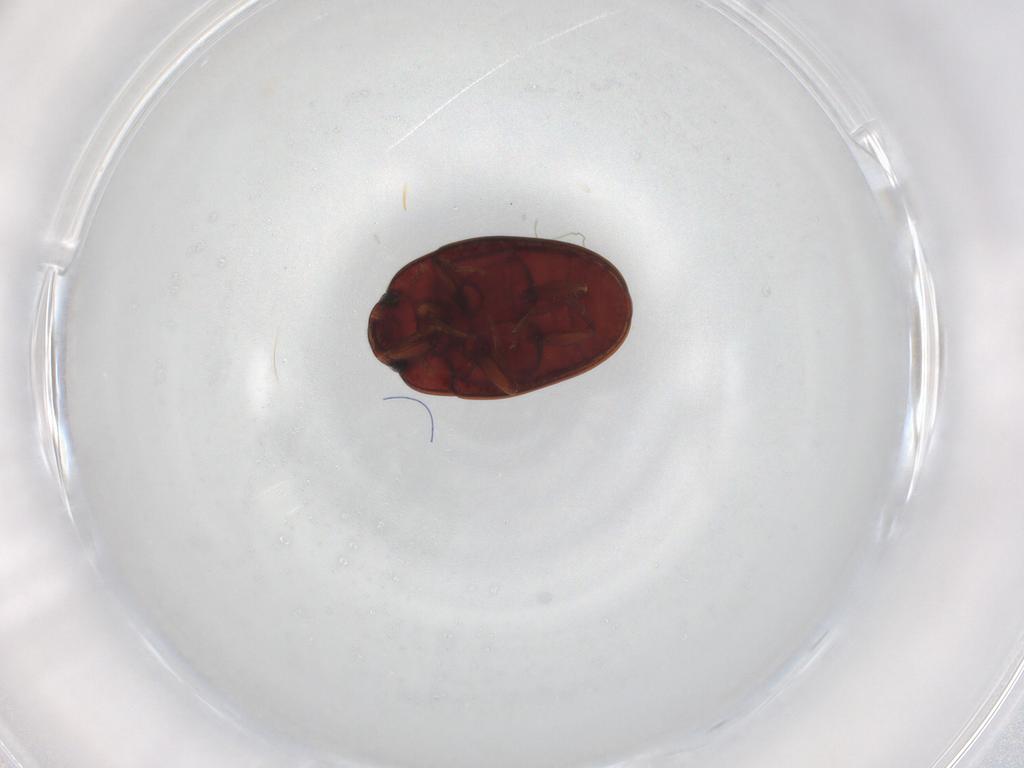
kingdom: Animalia
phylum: Arthropoda
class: Insecta
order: Coleoptera
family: Archeocrypticidae
